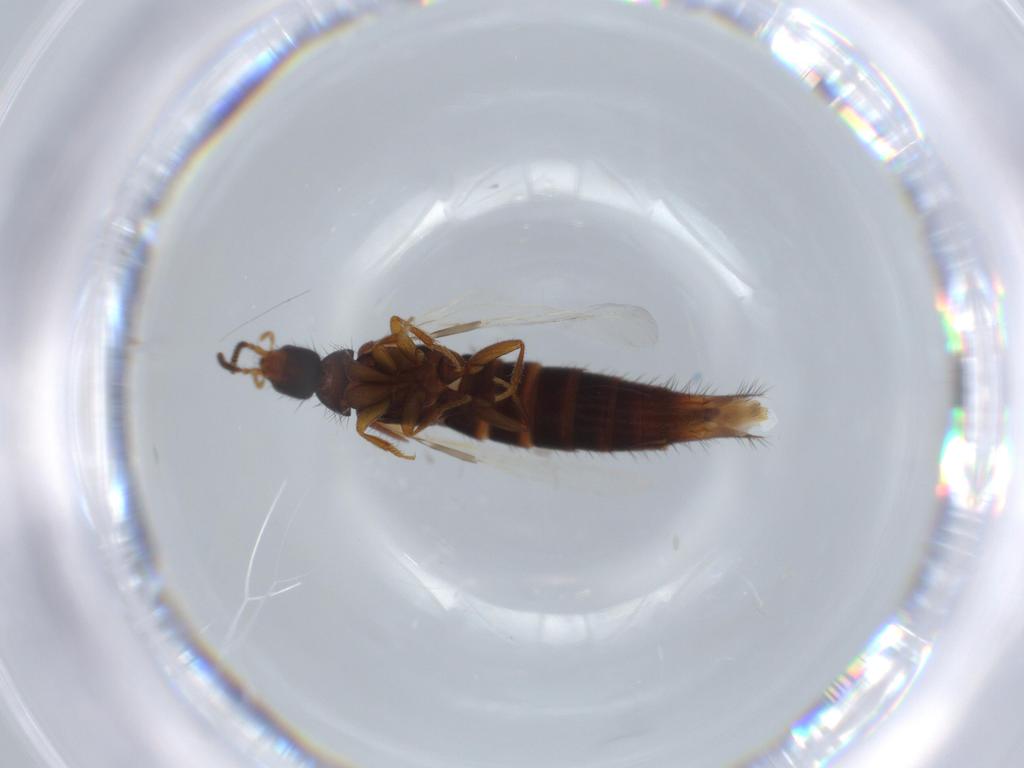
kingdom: Animalia
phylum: Arthropoda
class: Insecta
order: Coleoptera
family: Staphylinidae
